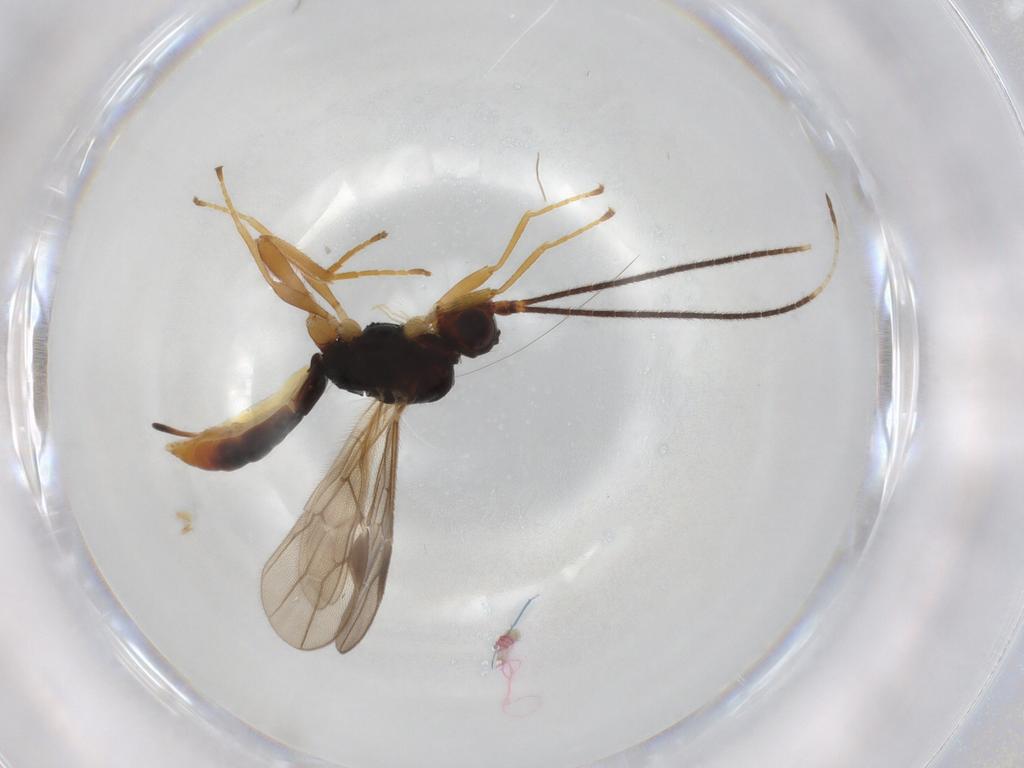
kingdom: Animalia
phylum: Arthropoda
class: Insecta
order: Hymenoptera
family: Braconidae
